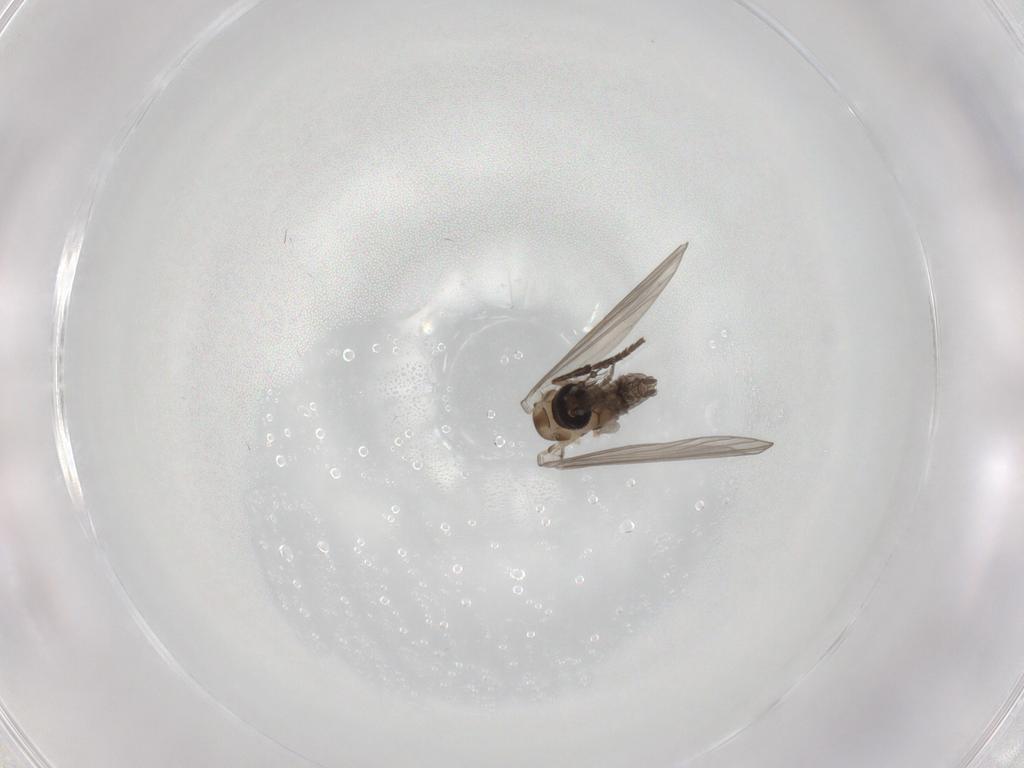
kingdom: Animalia
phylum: Arthropoda
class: Insecta
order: Diptera
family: Psychodidae
